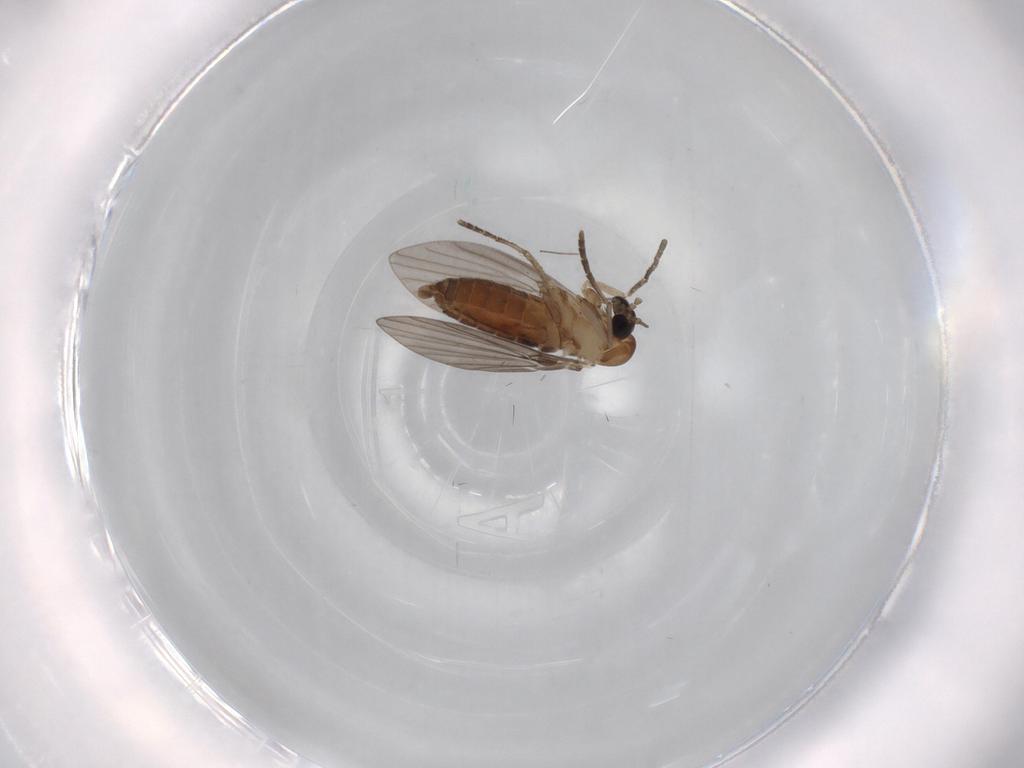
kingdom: Animalia
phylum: Arthropoda
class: Insecta
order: Diptera
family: Chironomidae
